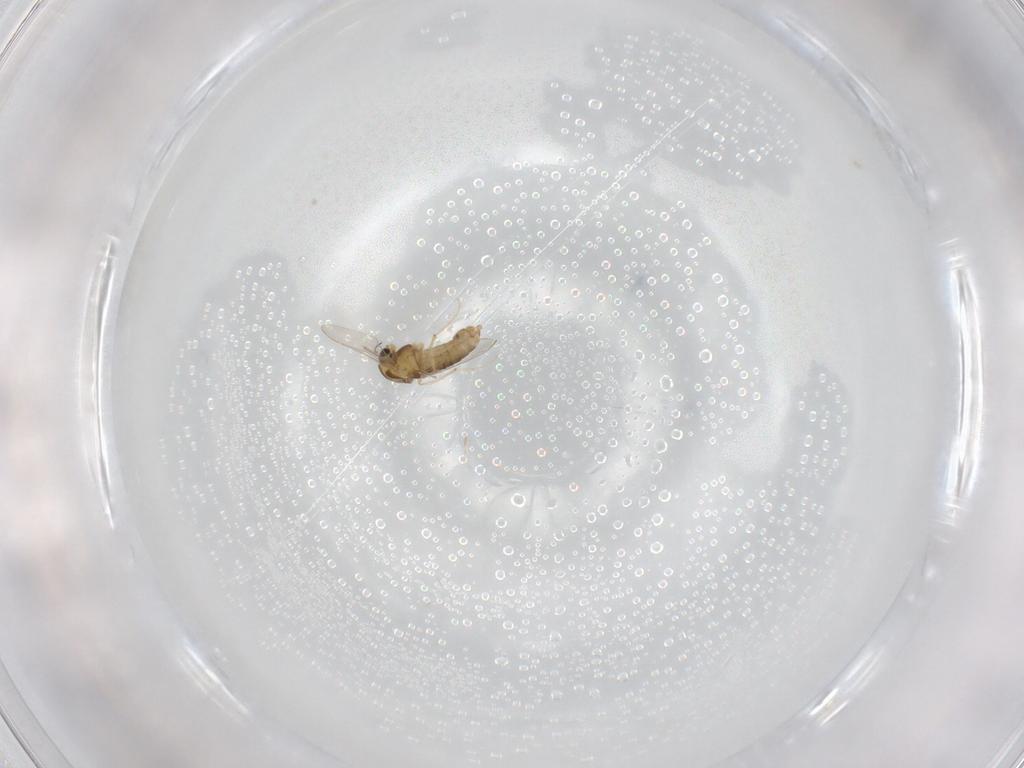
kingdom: Animalia
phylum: Arthropoda
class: Insecta
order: Diptera
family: Chironomidae
